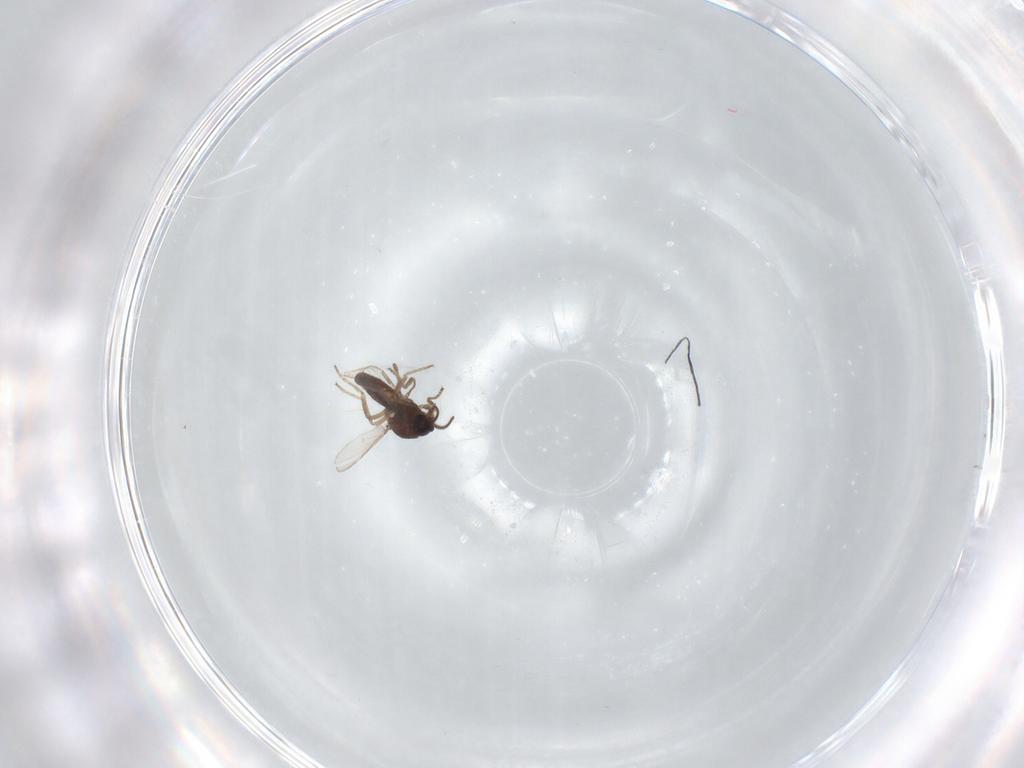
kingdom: Animalia
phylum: Arthropoda
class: Insecta
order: Diptera
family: Ceratopogonidae
